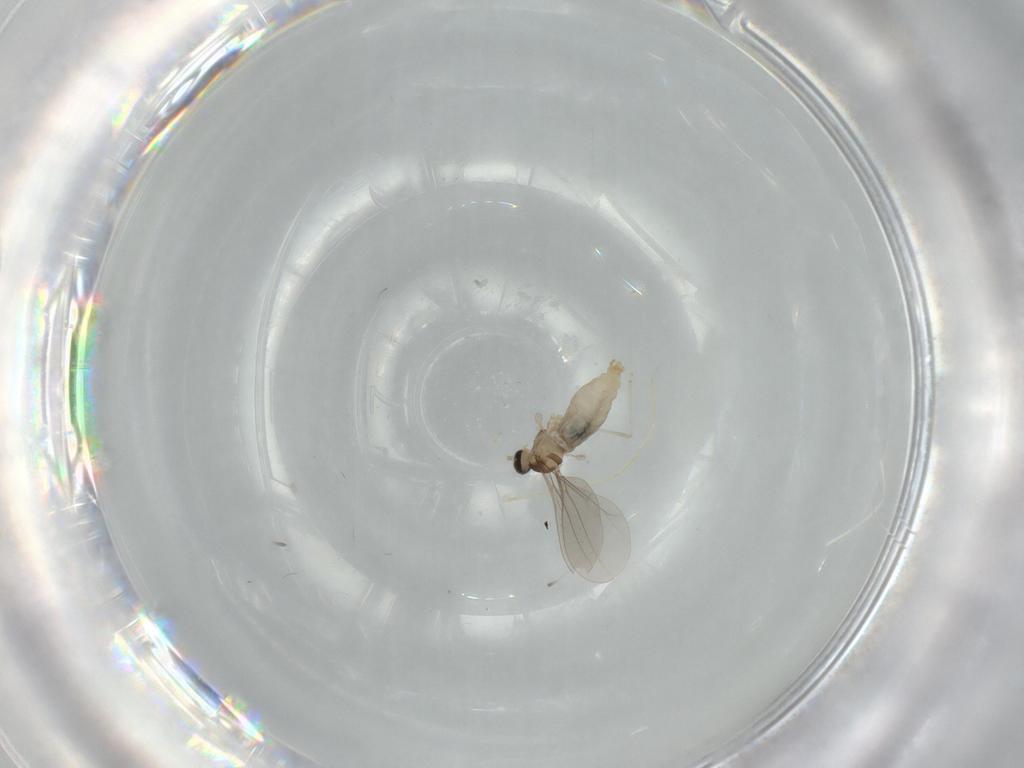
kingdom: Animalia
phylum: Arthropoda
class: Insecta
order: Diptera
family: Cecidomyiidae
